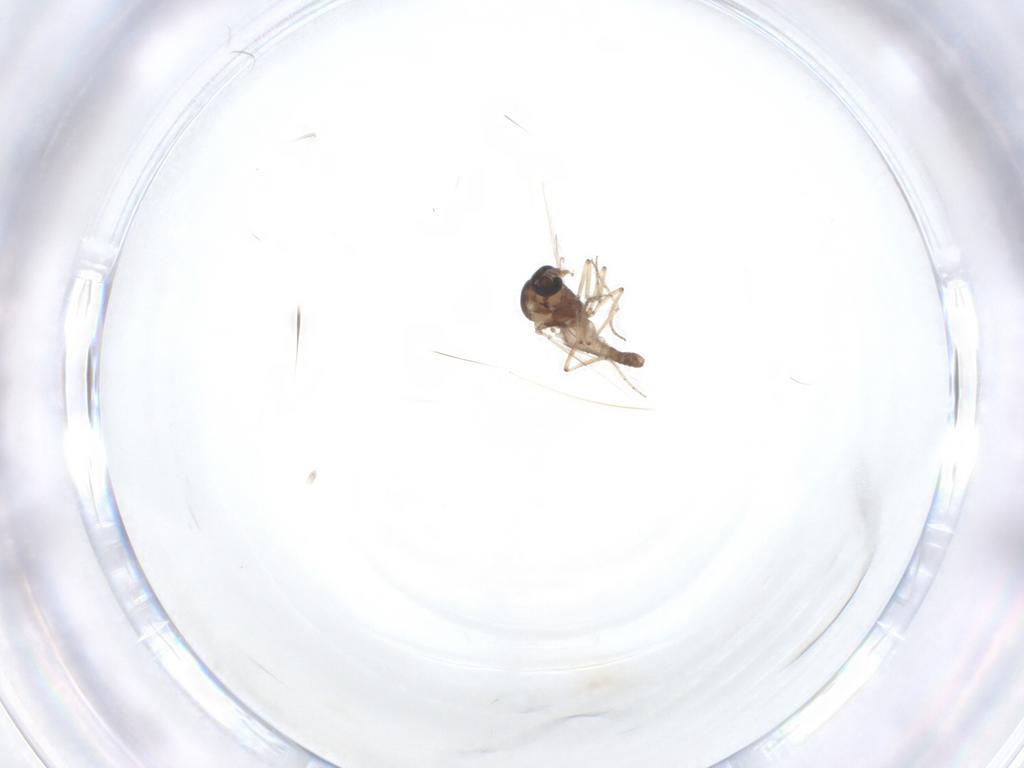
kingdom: Animalia
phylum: Arthropoda
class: Insecta
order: Diptera
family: Ceratopogonidae
